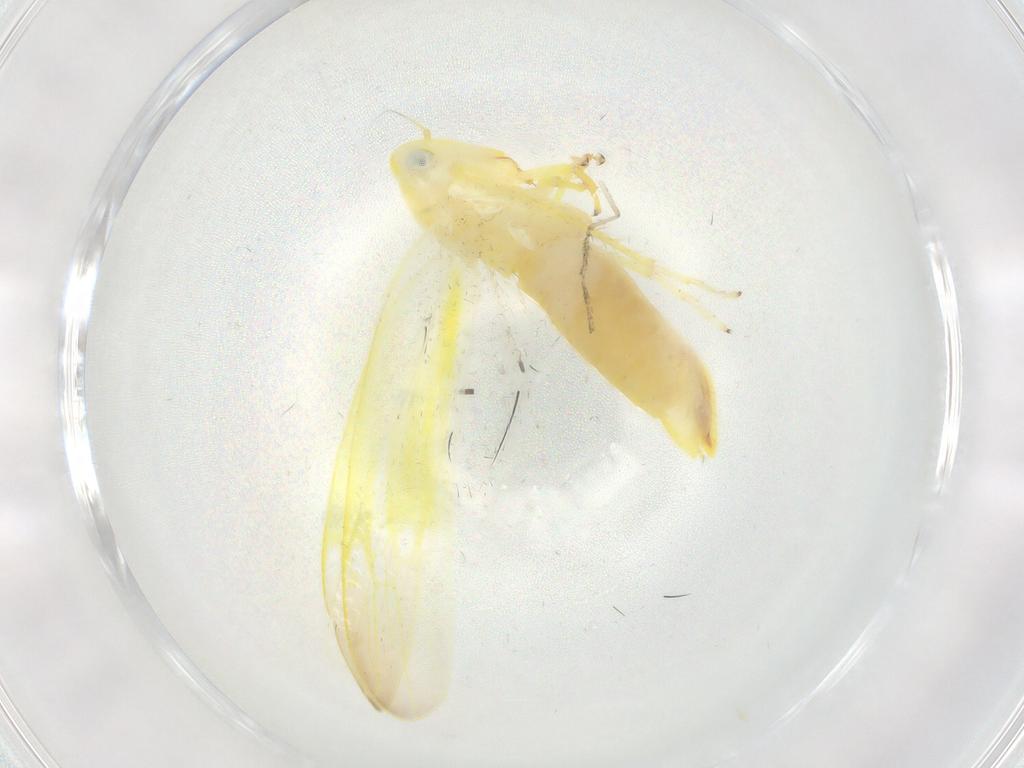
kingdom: Animalia
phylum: Arthropoda
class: Insecta
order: Hemiptera
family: Cicadellidae
